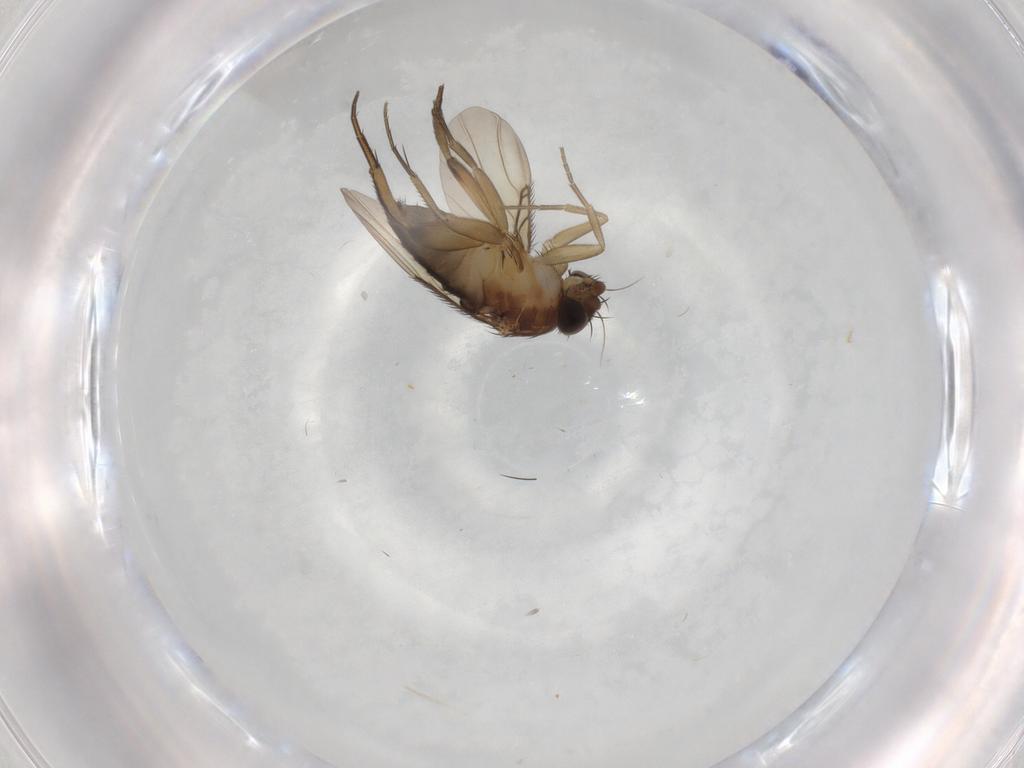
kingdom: Animalia
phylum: Arthropoda
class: Insecta
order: Diptera
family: Phoridae
